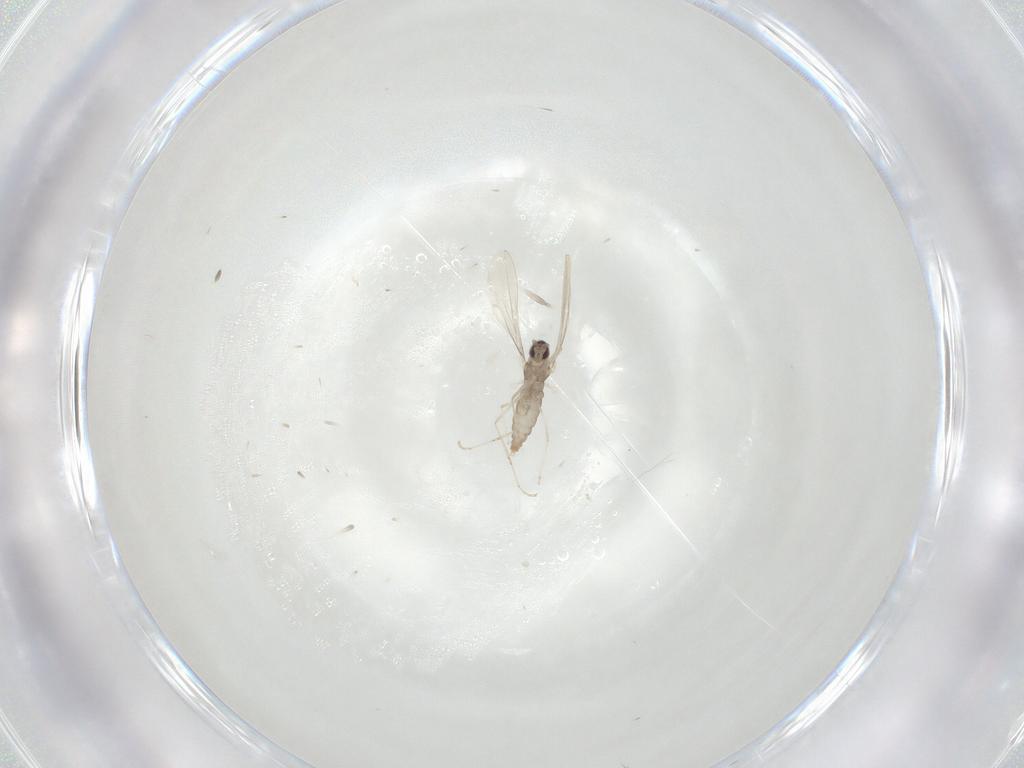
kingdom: Animalia
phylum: Arthropoda
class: Insecta
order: Diptera
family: Cecidomyiidae
